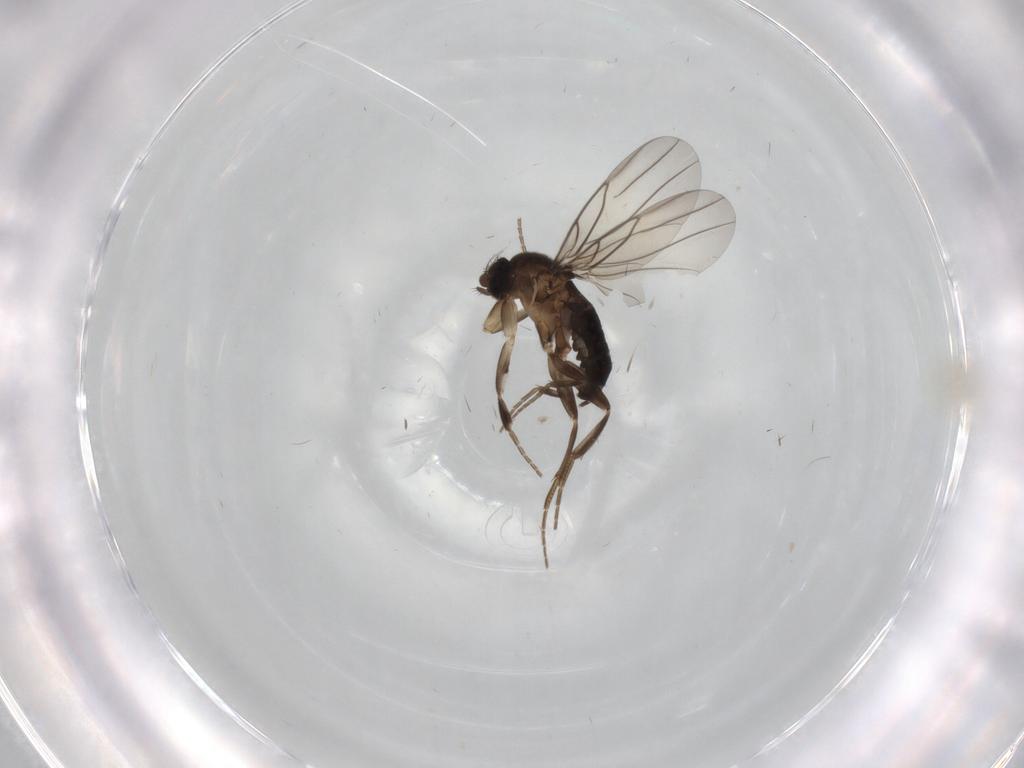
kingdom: Animalia
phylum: Arthropoda
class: Insecta
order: Diptera
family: Phoridae
